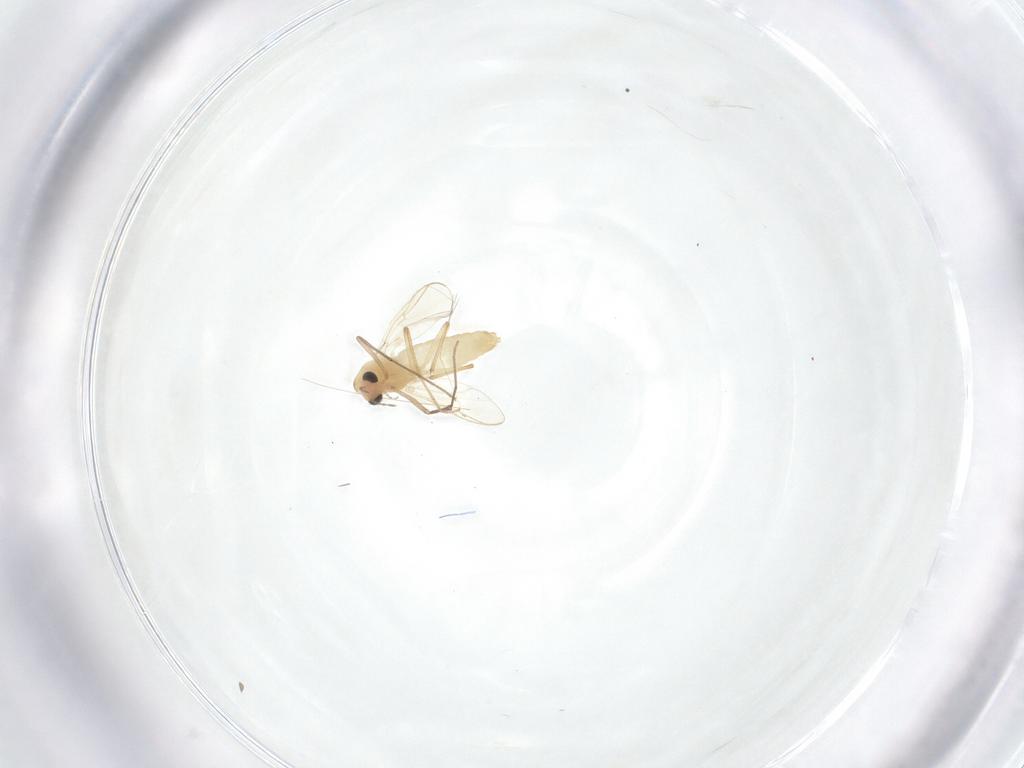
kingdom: Animalia
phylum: Arthropoda
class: Insecta
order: Diptera
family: Chironomidae
